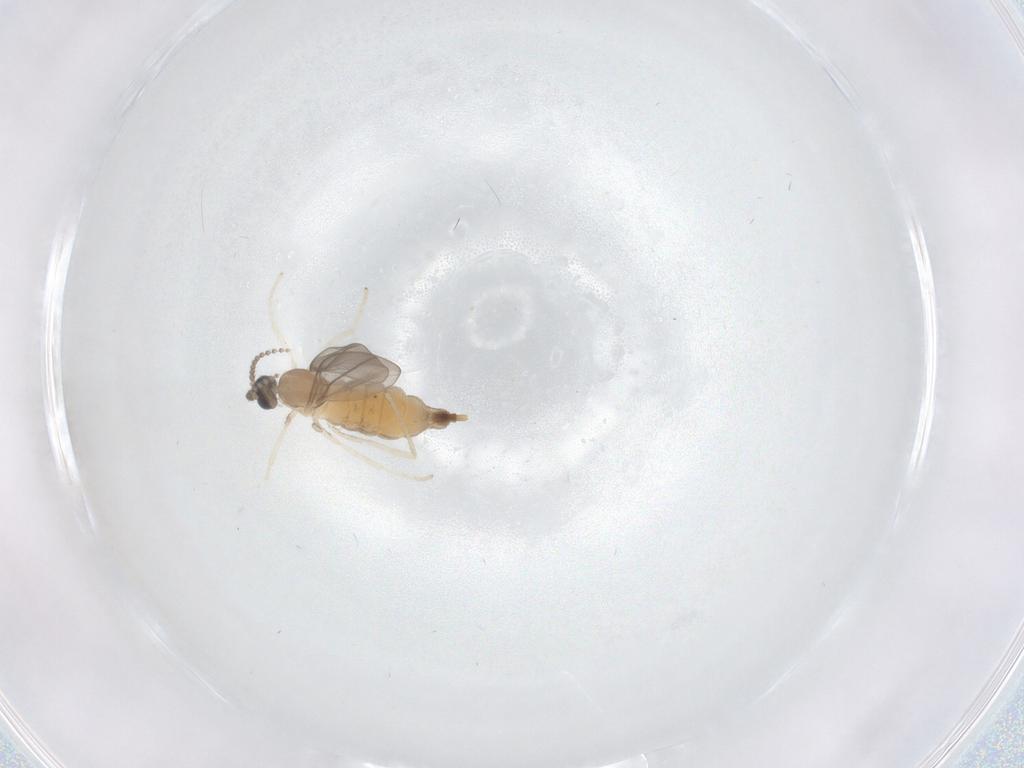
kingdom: Animalia
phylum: Arthropoda
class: Insecta
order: Diptera
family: Cecidomyiidae
